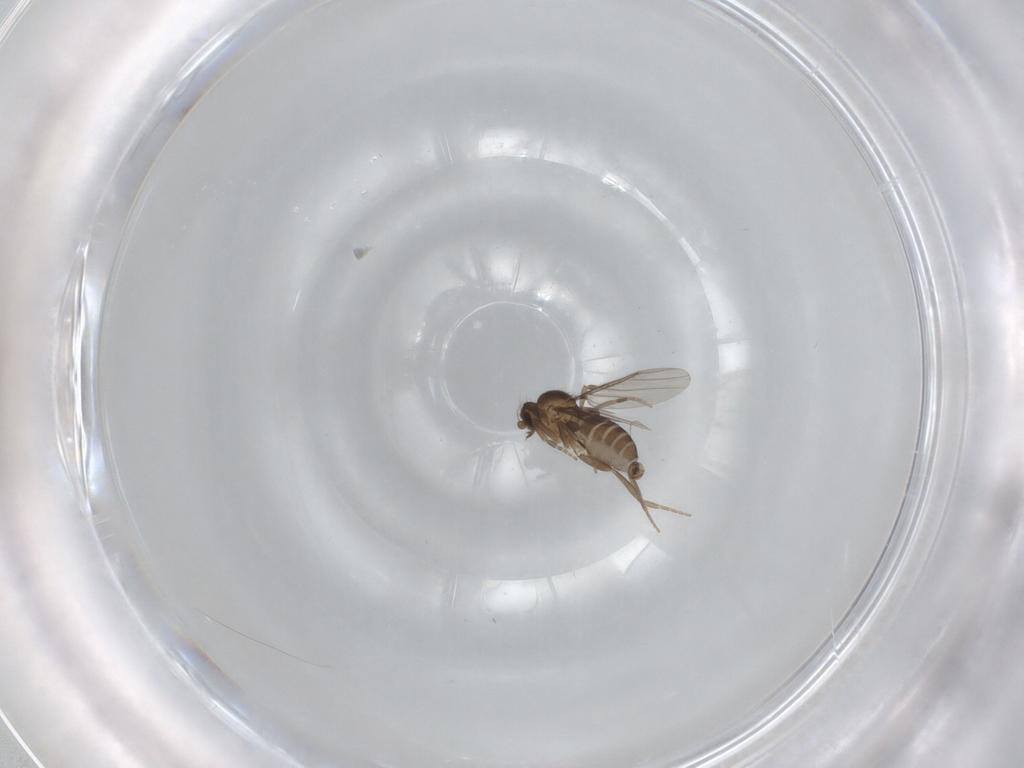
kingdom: Animalia
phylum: Arthropoda
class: Insecta
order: Diptera
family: Phoridae
